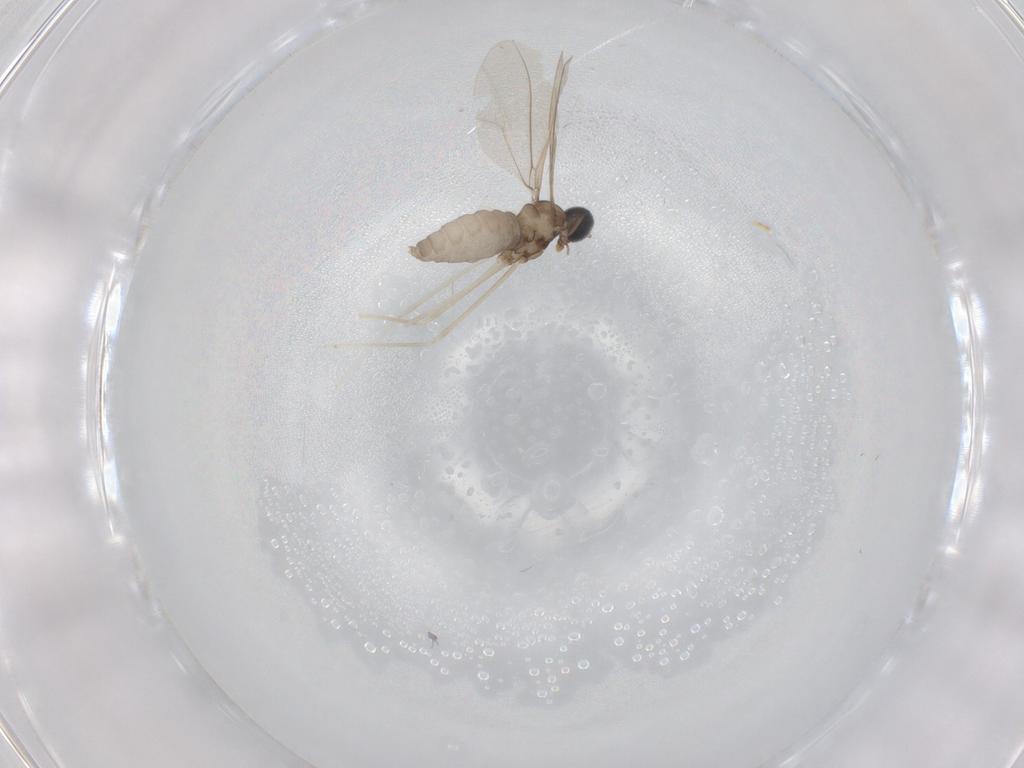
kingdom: Animalia
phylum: Arthropoda
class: Insecta
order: Diptera
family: Cecidomyiidae
